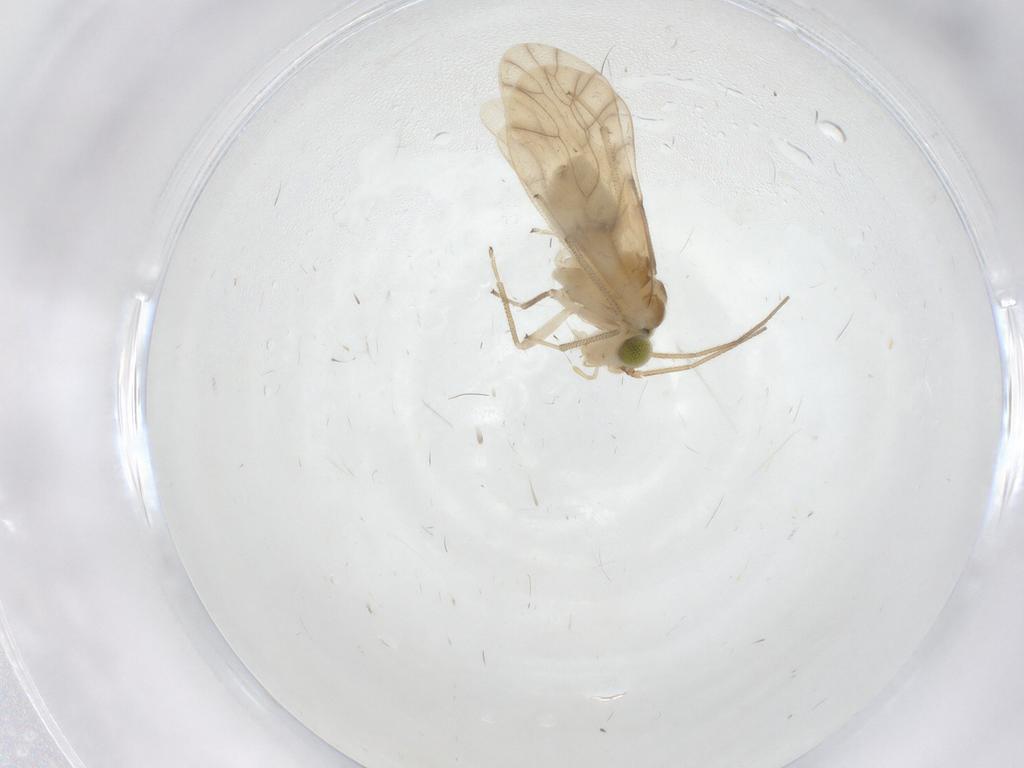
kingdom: Animalia
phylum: Arthropoda
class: Insecta
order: Psocodea
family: Caeciliusidae
